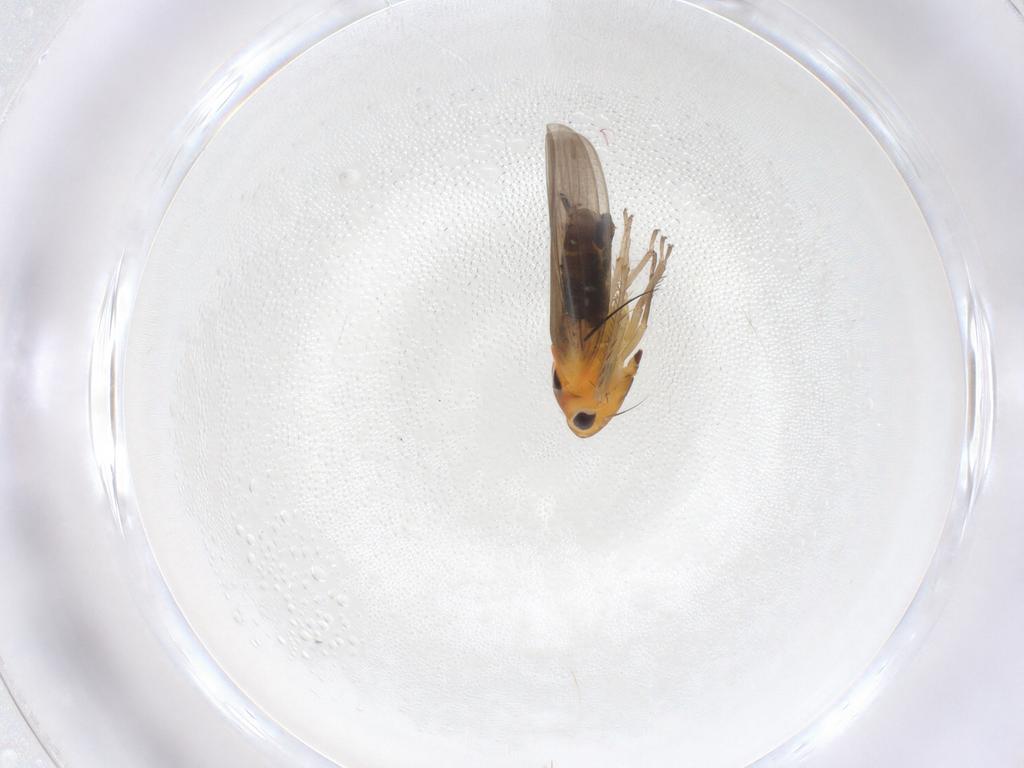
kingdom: Animalia
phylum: Arthropoda
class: Insecta
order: Hemiptera
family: Cicadellidae
